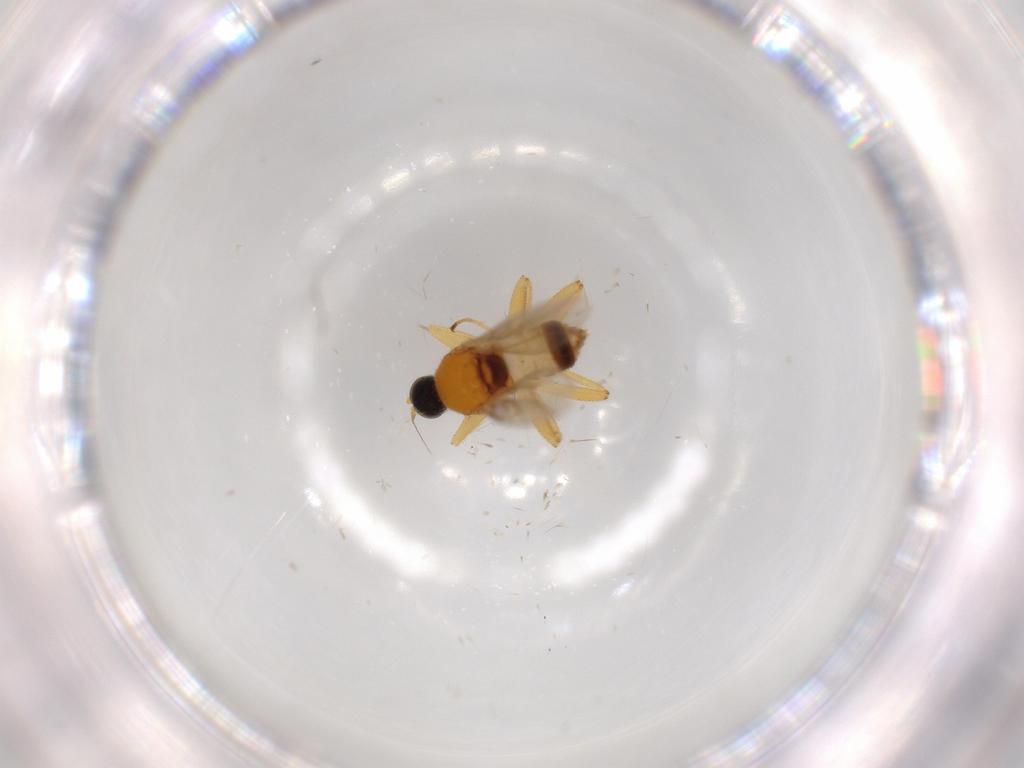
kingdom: Animalia
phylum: Arthropoda
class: Insecta
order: Diptera
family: Hybotidae
